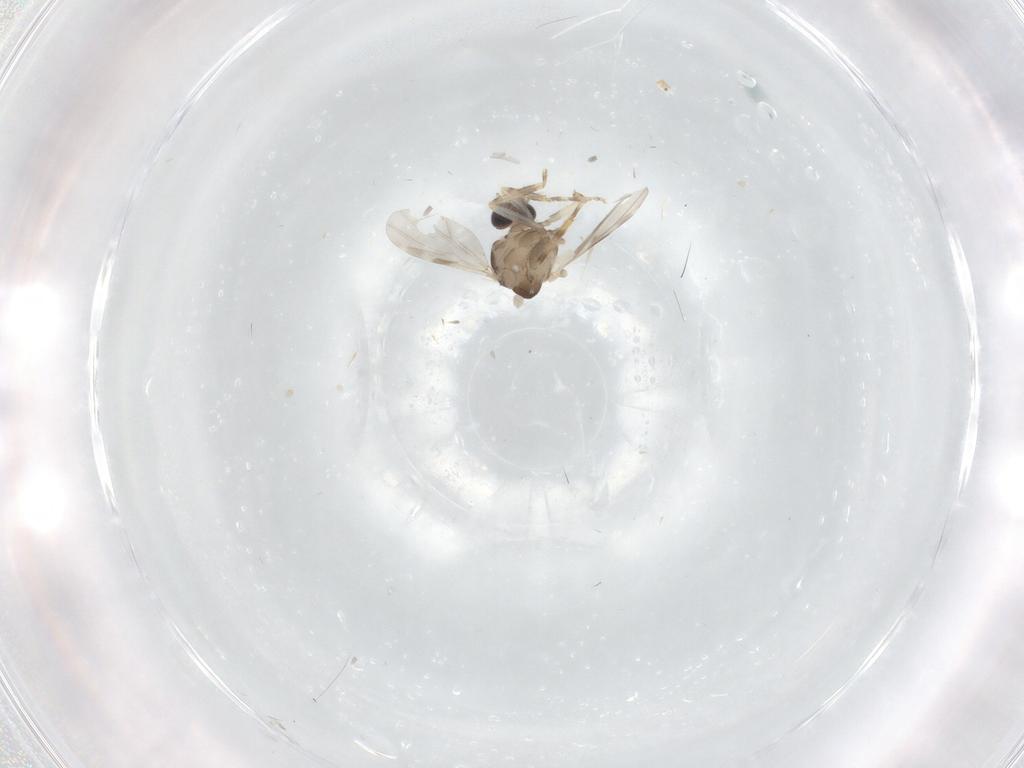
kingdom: Animalia
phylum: Arthropoda
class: Insecta
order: Diptera
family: Ceratopogonidae
